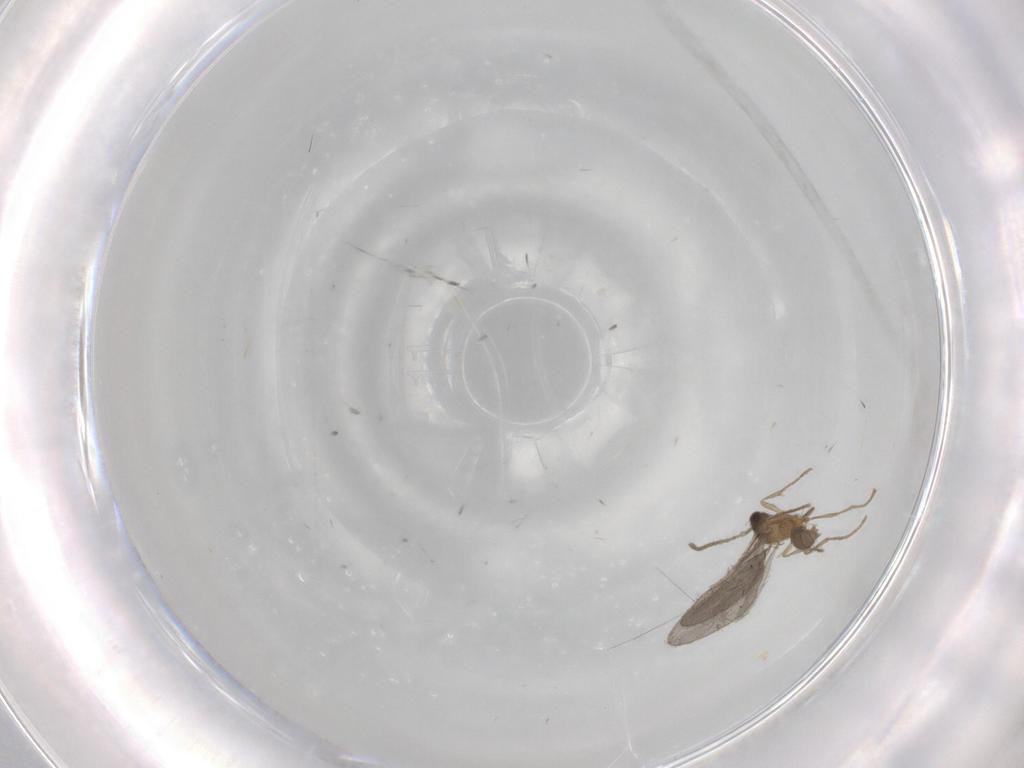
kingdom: Animalia
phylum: Arthropoda
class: Insecta
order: Hymenoptera
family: Formicidae
